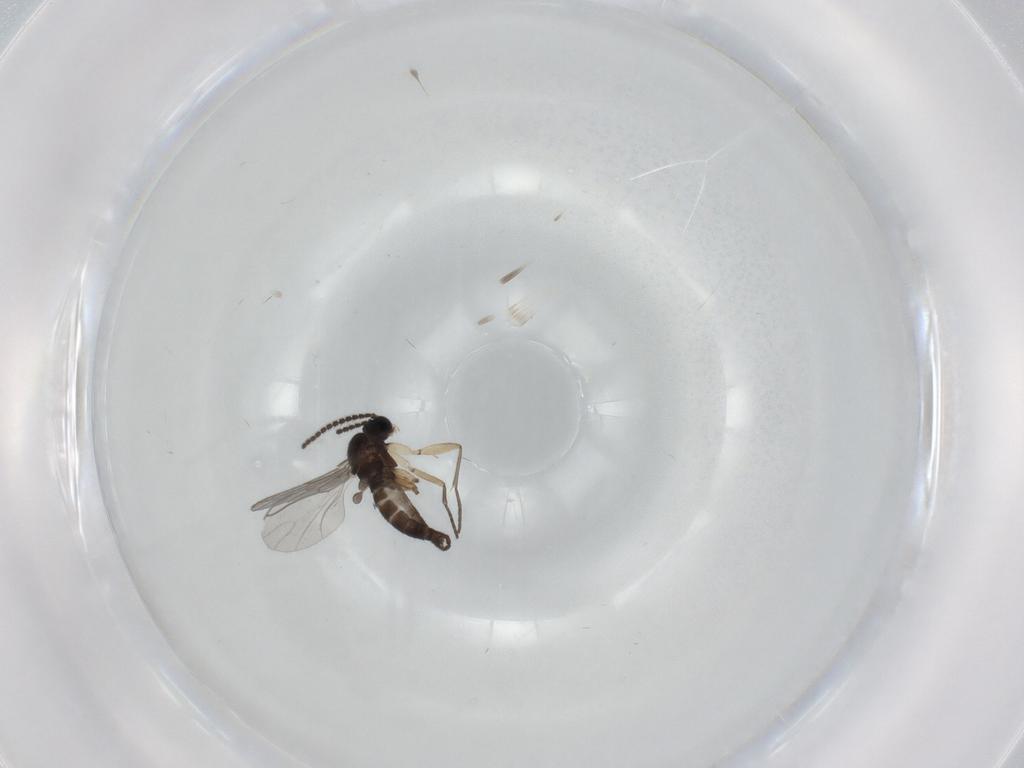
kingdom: Animalia
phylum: Arthropoda
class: Insecta
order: Diptera
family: Sciaridae
